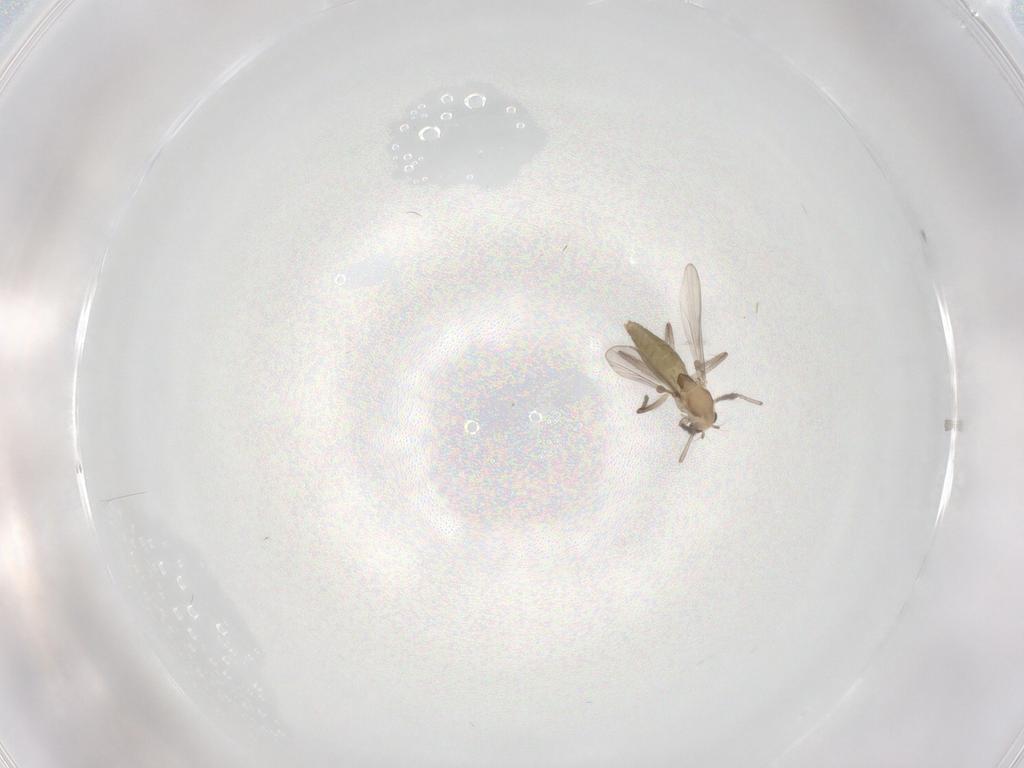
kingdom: Animalia
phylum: Arthropoda
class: Insecta
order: Diptera
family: Chironomidae
